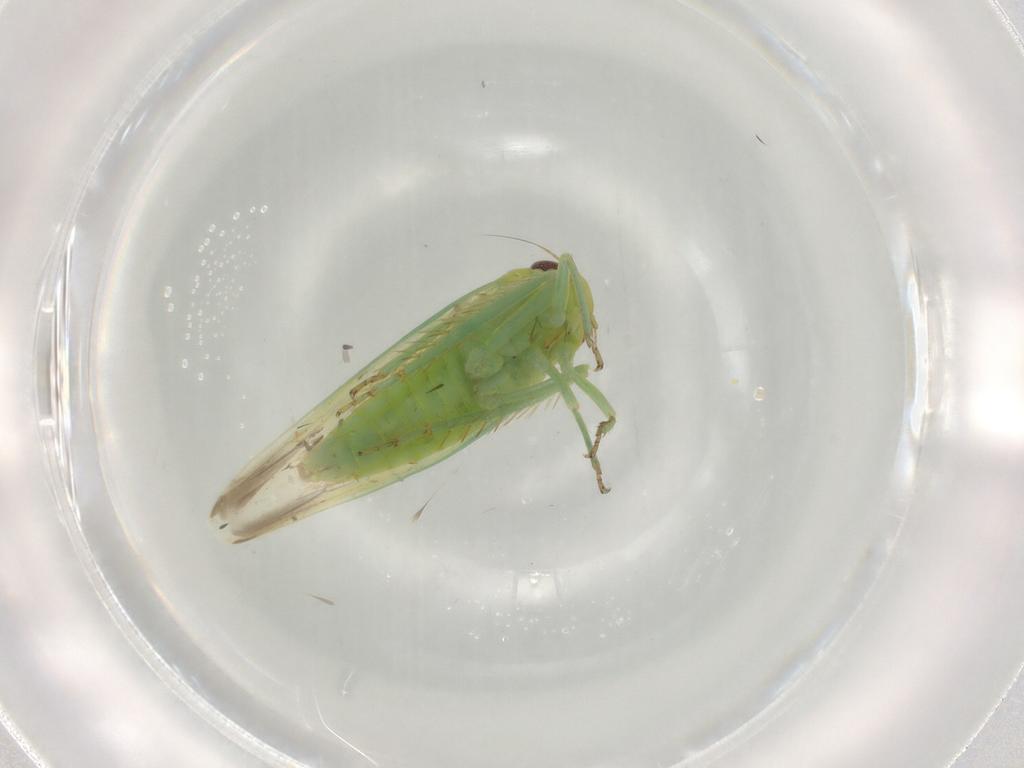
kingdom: Animalia
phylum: Arthropoda
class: Insecta
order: Hemiptera
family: Cicadellidae
